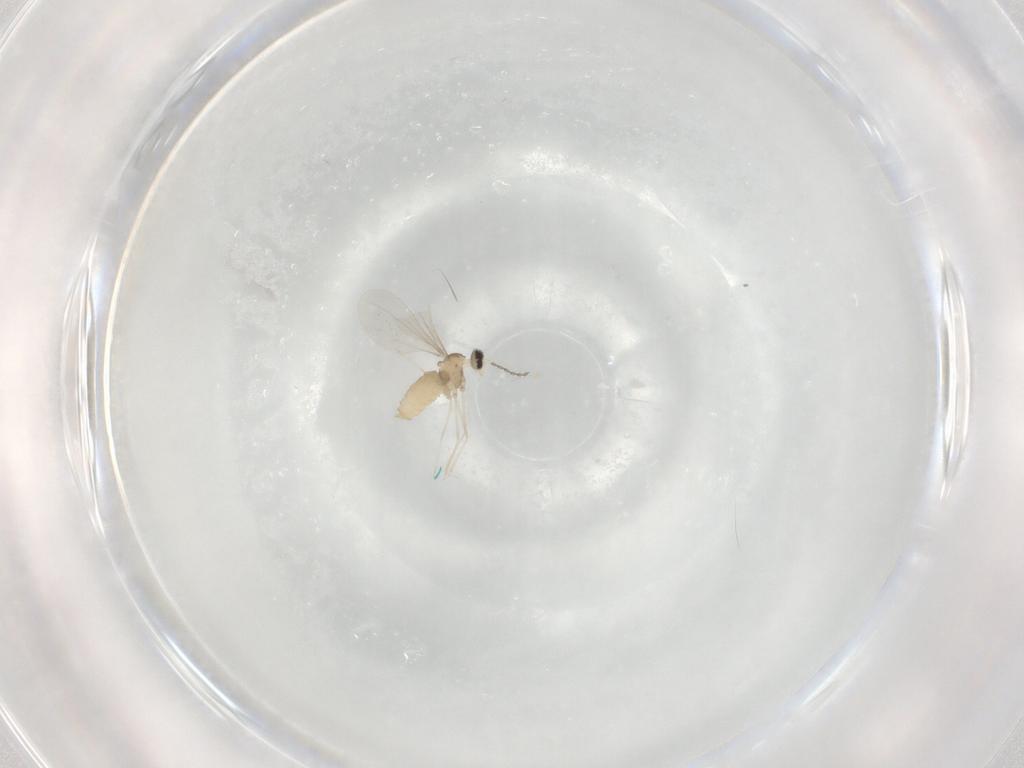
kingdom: Animalia
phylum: Arthropoda
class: Insecta
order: Diptera
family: Cecidomyiidae
